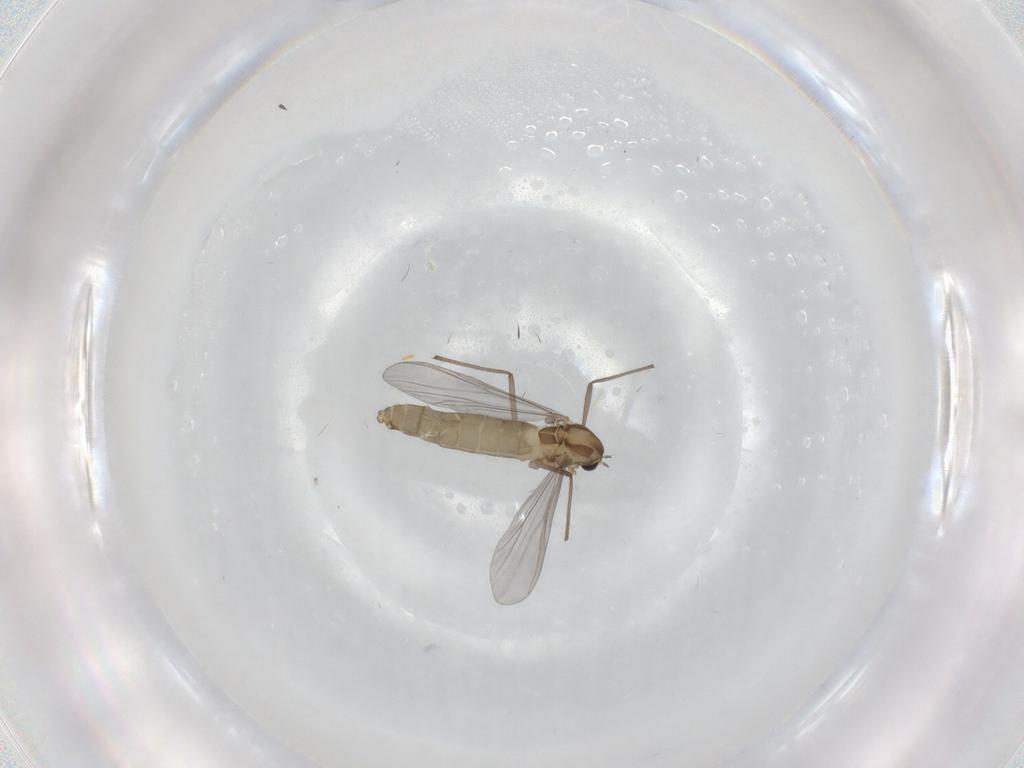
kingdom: Animalia
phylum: Arthropoda
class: Insecta
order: Diptera
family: Chironomidae
